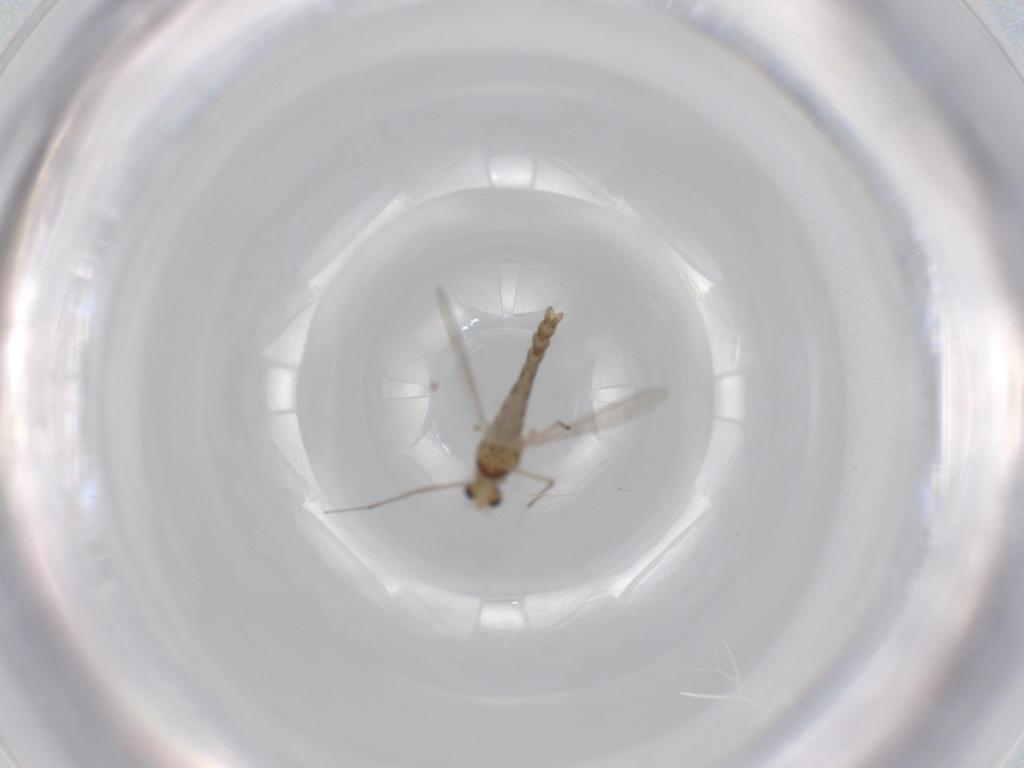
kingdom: Animalia
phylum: Arthropoda
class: Insecta
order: Diptera
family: Chironomidae
